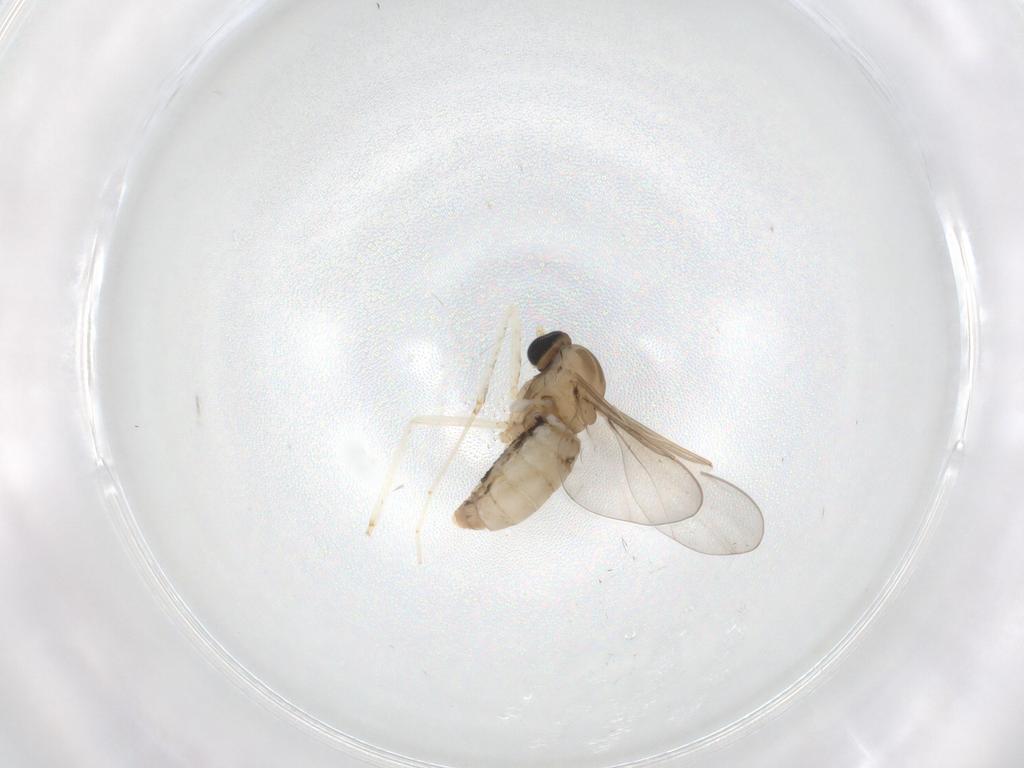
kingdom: Animalia
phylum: Arthropoda
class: Insecta
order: Diptera
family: Cecidomyiidae
